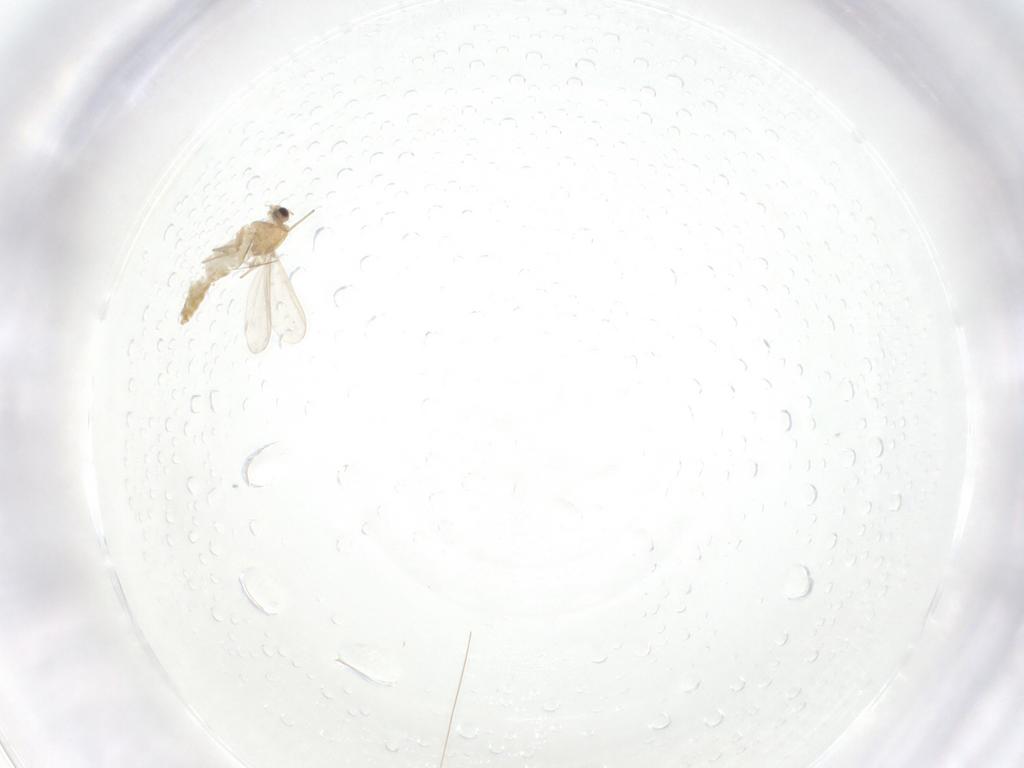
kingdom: Animalia
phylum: Arthropoda
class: Insecta
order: Diptera
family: Chironomidae
